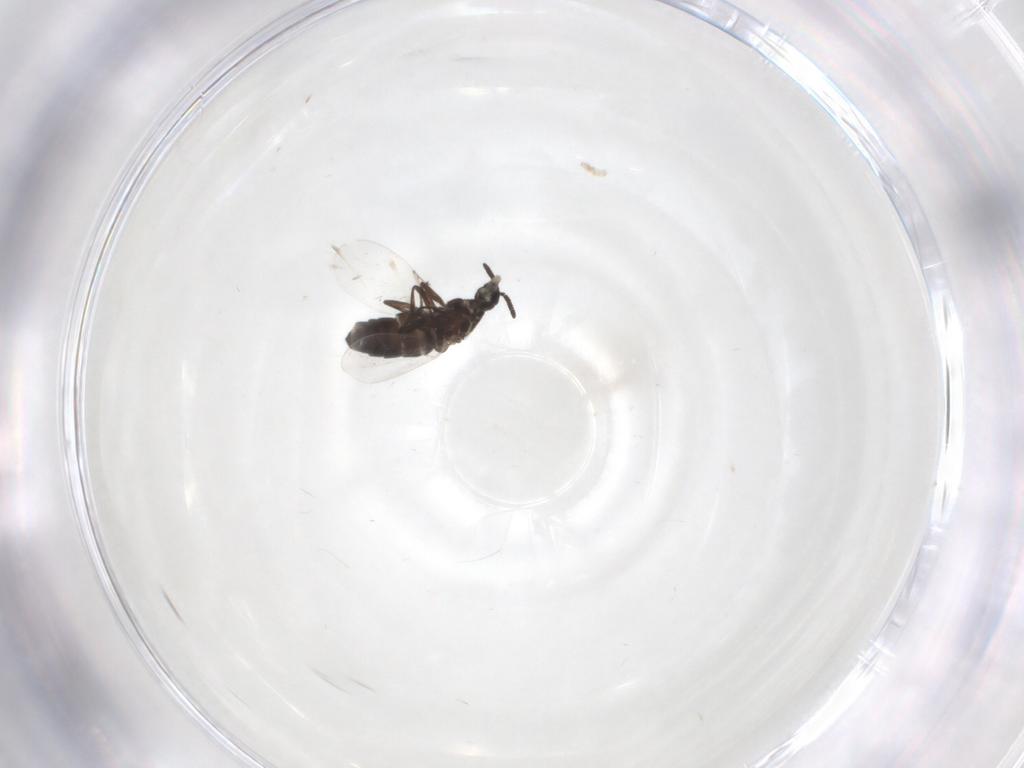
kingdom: Animalia
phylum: Arthropoda
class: Insecta
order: Diptera
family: Scatopsidae
